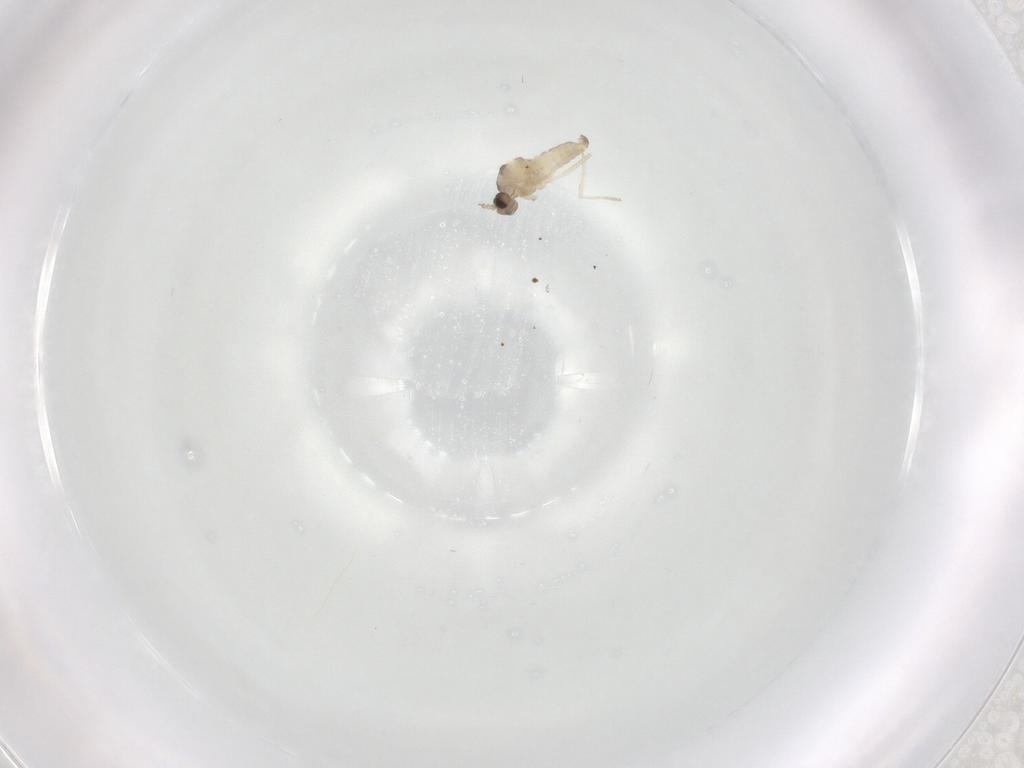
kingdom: Animalia
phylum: Arthropoda
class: Insecta
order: Diptera
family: Cecidomyiidae
